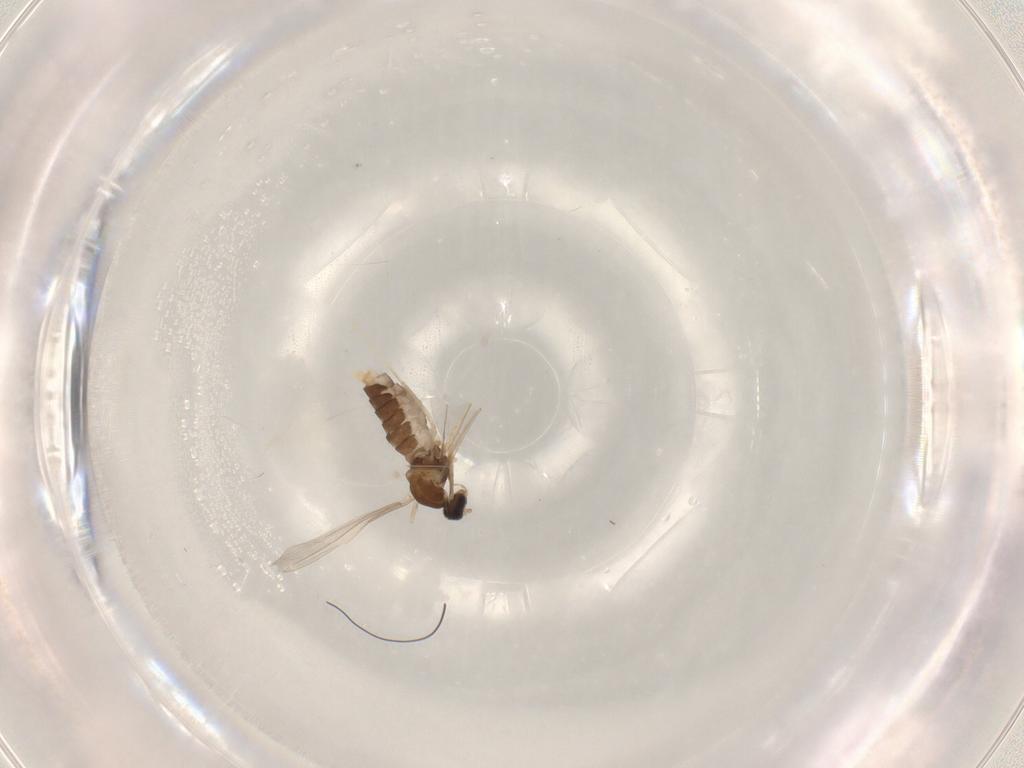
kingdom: Animalia
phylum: Arthropoda
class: Insecta
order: Diptera
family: Cecidomyiidae
